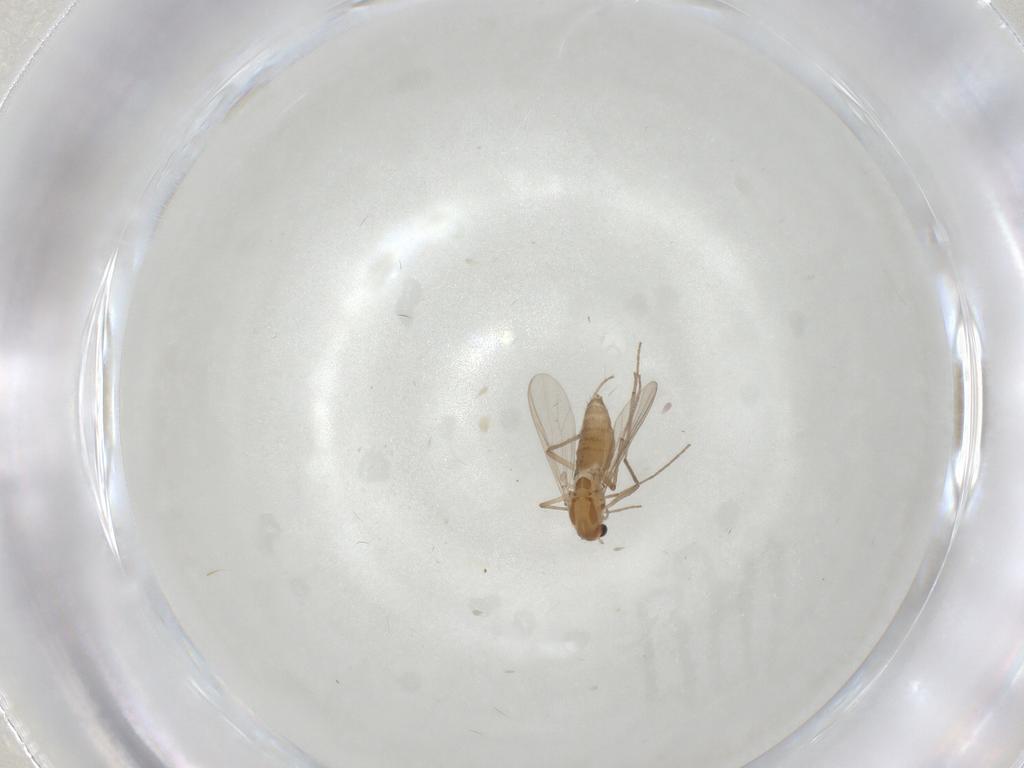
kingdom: Animalia
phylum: Arthropoda
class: Insecta
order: Diptera
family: Chironomidae
